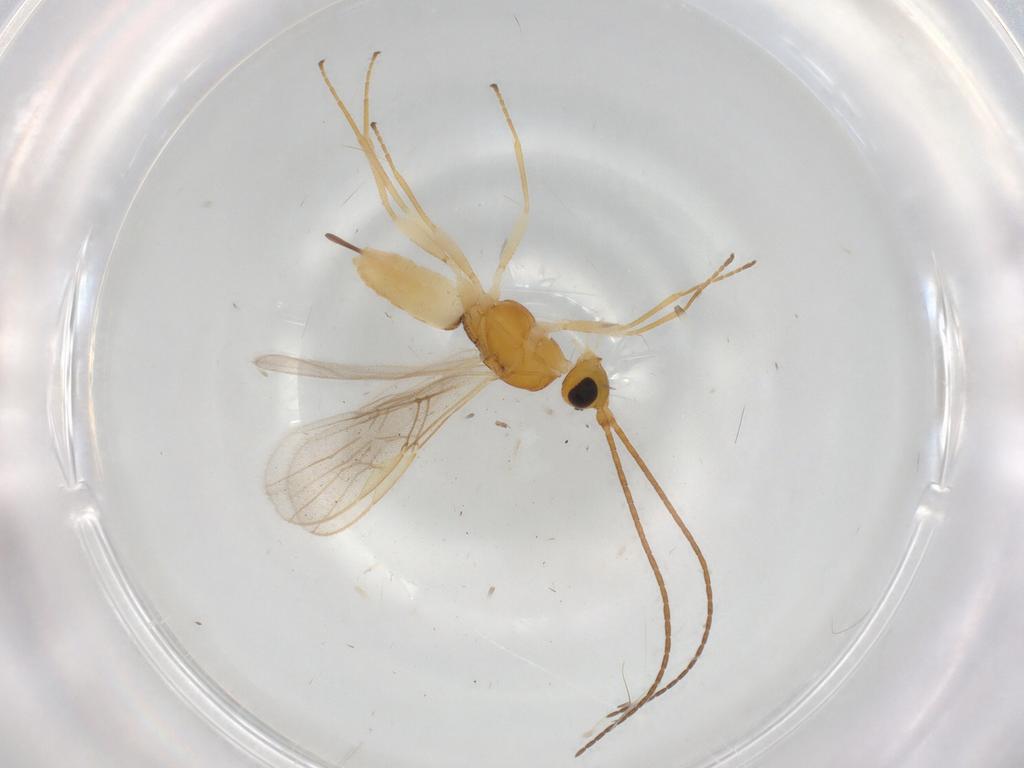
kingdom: Animalia
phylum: Arthropoda
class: Insecta
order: Hymenoptera
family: Braconidae
